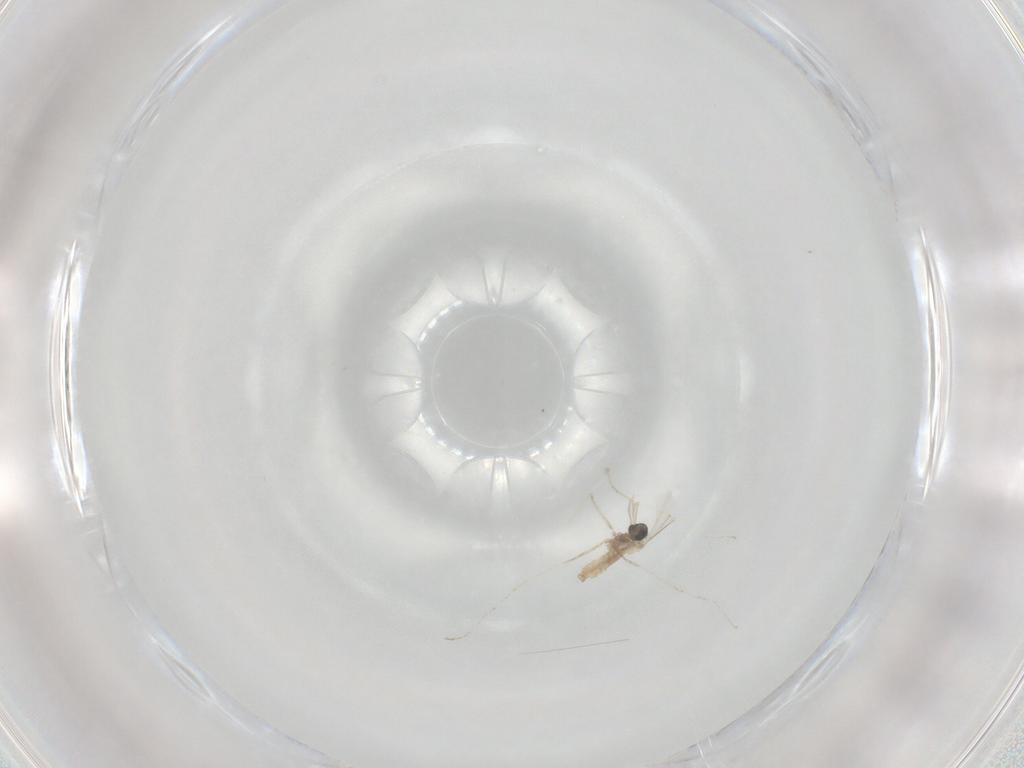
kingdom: Animalia
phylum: Arthropoda
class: Insecta
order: Diptera
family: Cecidomyiidae
